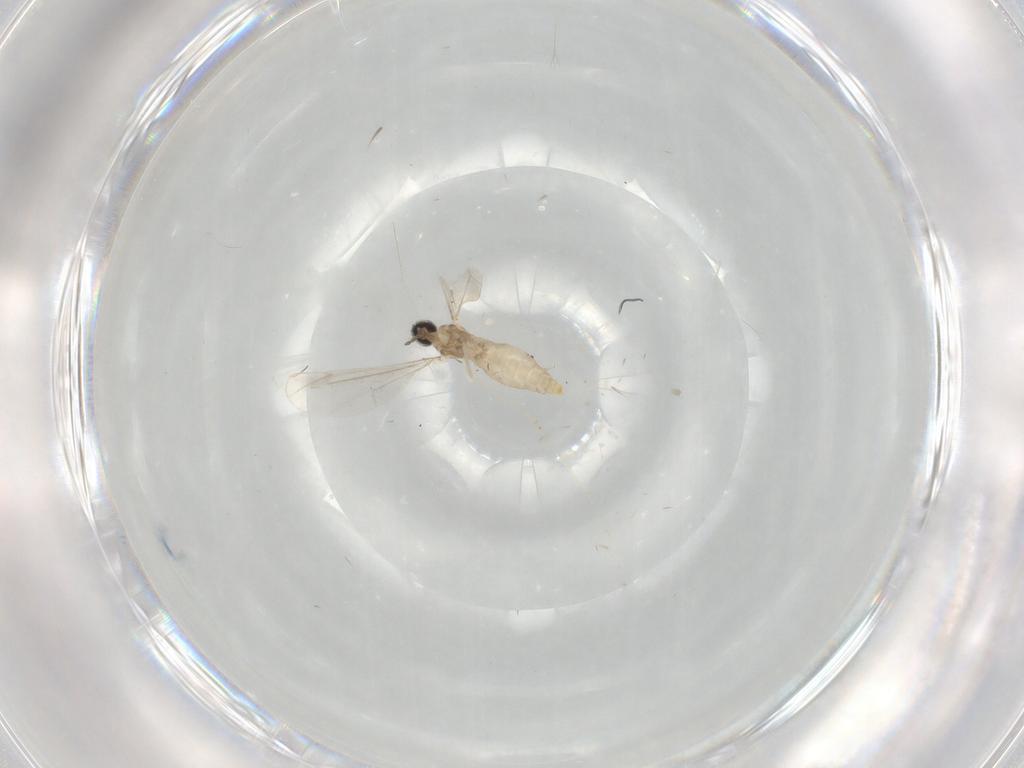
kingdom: Animalia
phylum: Arthropoda
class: Insecta
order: Diptera
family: Cecidomyiidae
